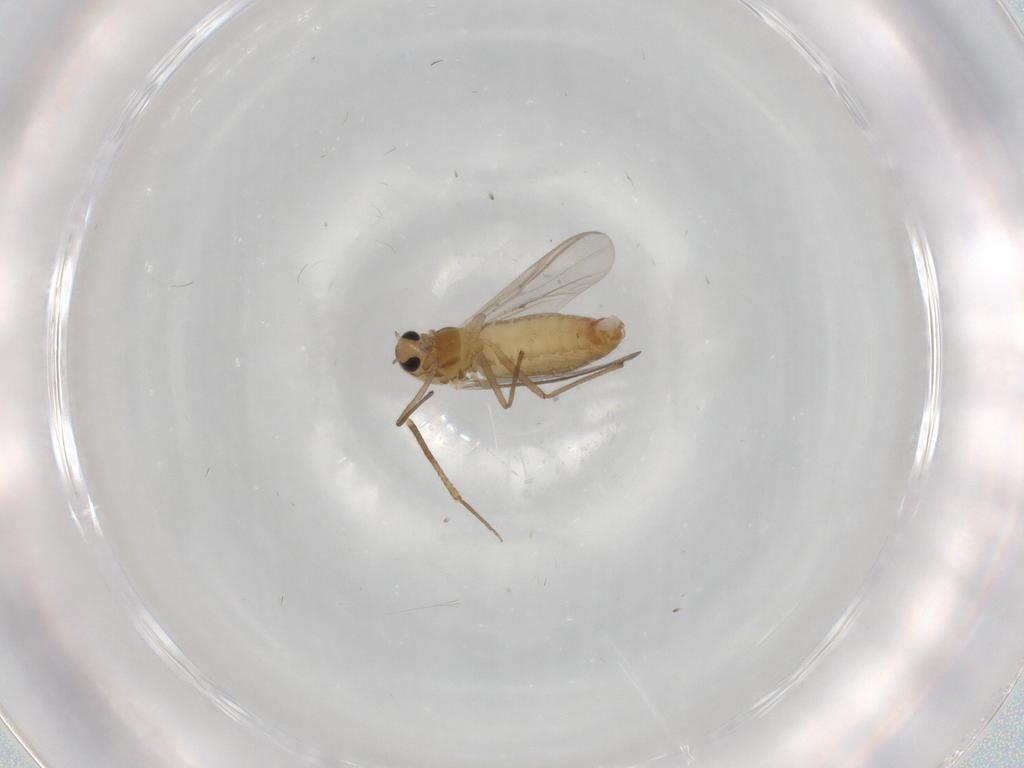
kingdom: Animalia
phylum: Arthropoda
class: Insecta
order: Diptera
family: Chironomidae
